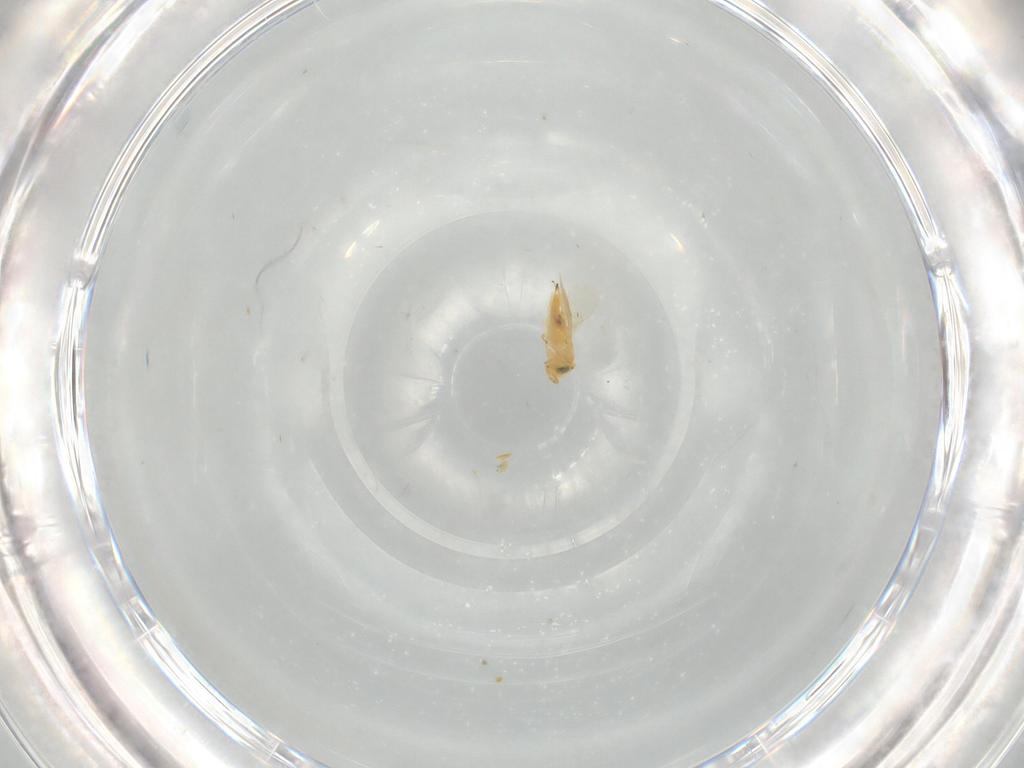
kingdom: Animalia
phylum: Arthropoda
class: Insecta
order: Hymenoptera
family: Encyrtidae
